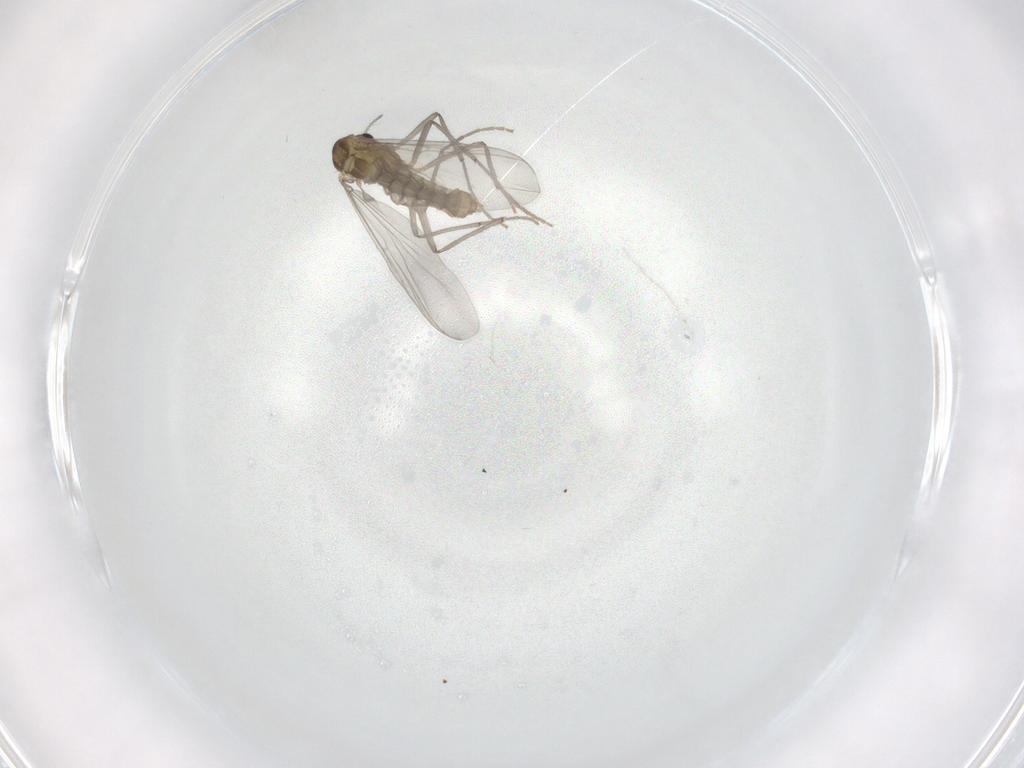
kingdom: Animalia
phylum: Arthropoda
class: Insecta
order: Diptera
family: Chironomidae
